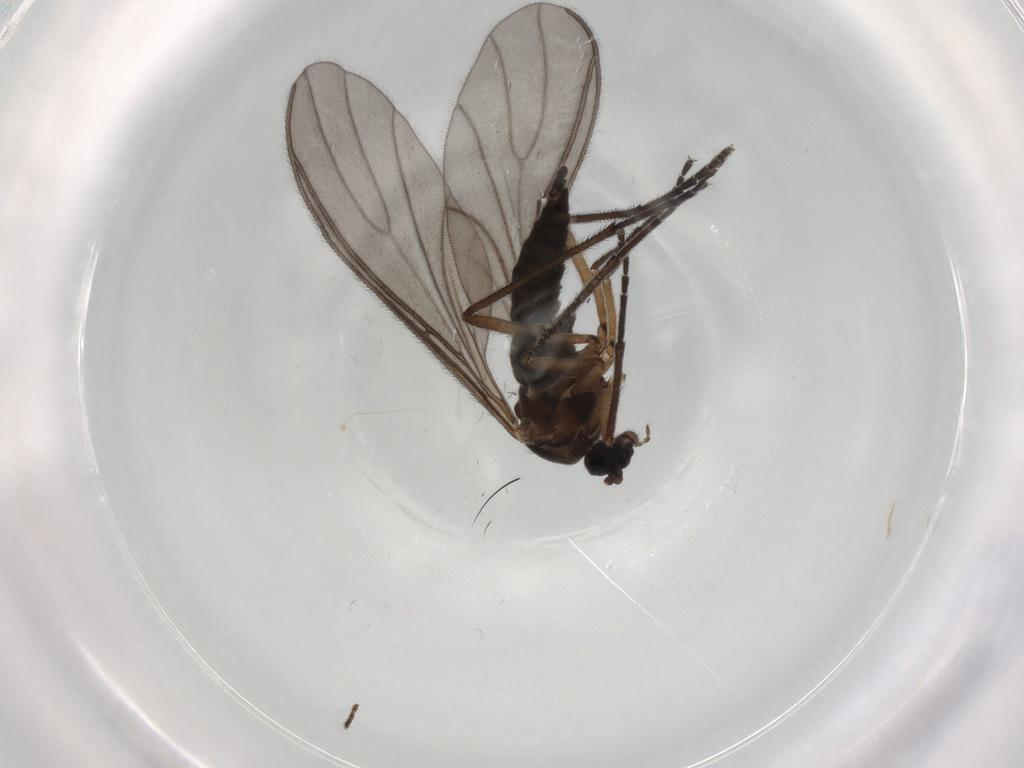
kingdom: Animalia
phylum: Arthropoda
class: Insecta
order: Diptera
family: Sciaridae
